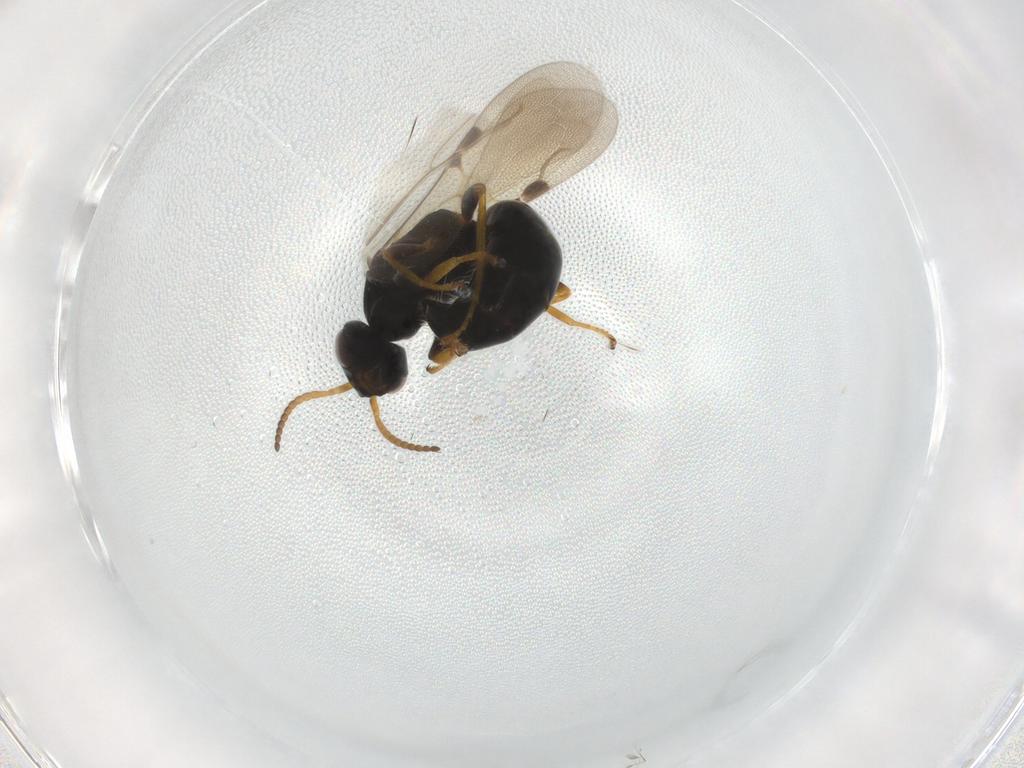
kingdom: Animalia
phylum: Arthropoda
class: Insecta
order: Hymenoptera
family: Bethylidae
